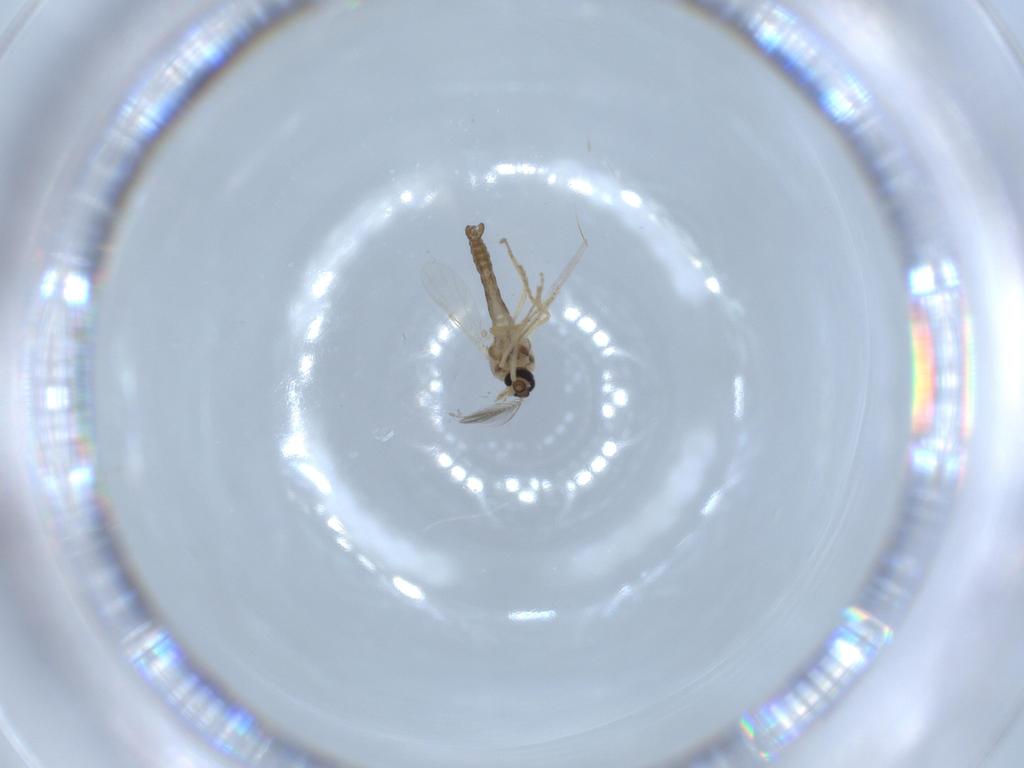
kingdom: Animalia
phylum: Arthropoda
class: Insecta
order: Diptera
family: Ceratopogonidae
